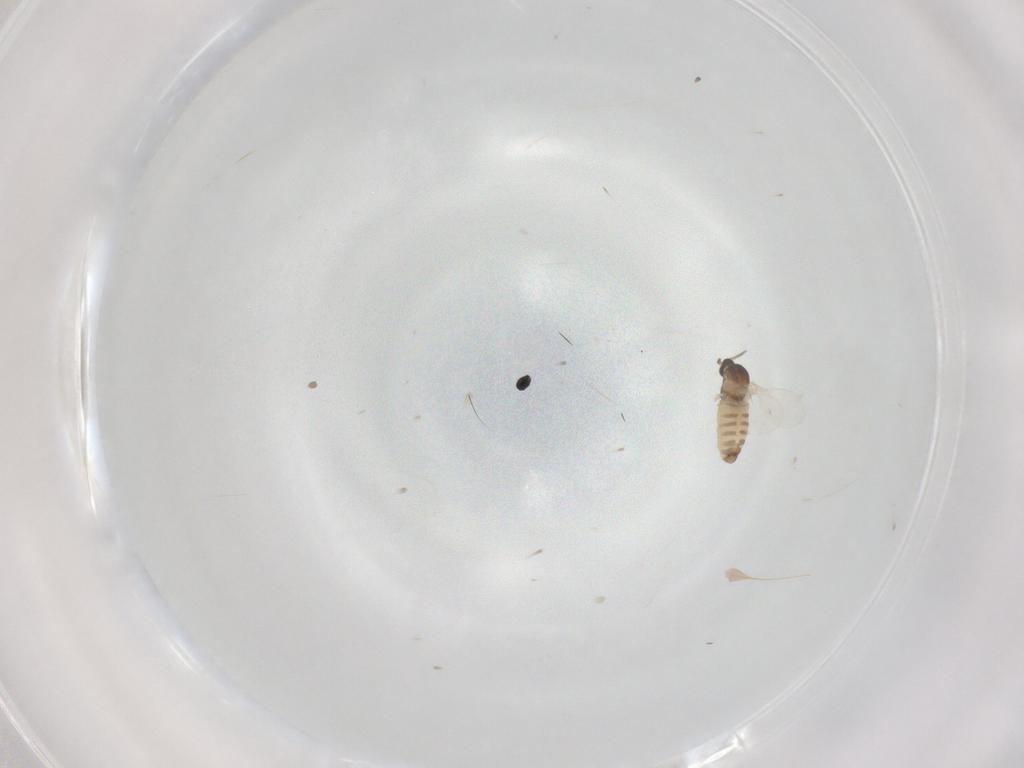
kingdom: Animalia
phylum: Arthropoda
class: Insecta
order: Diptera
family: Cecidomyiidae
